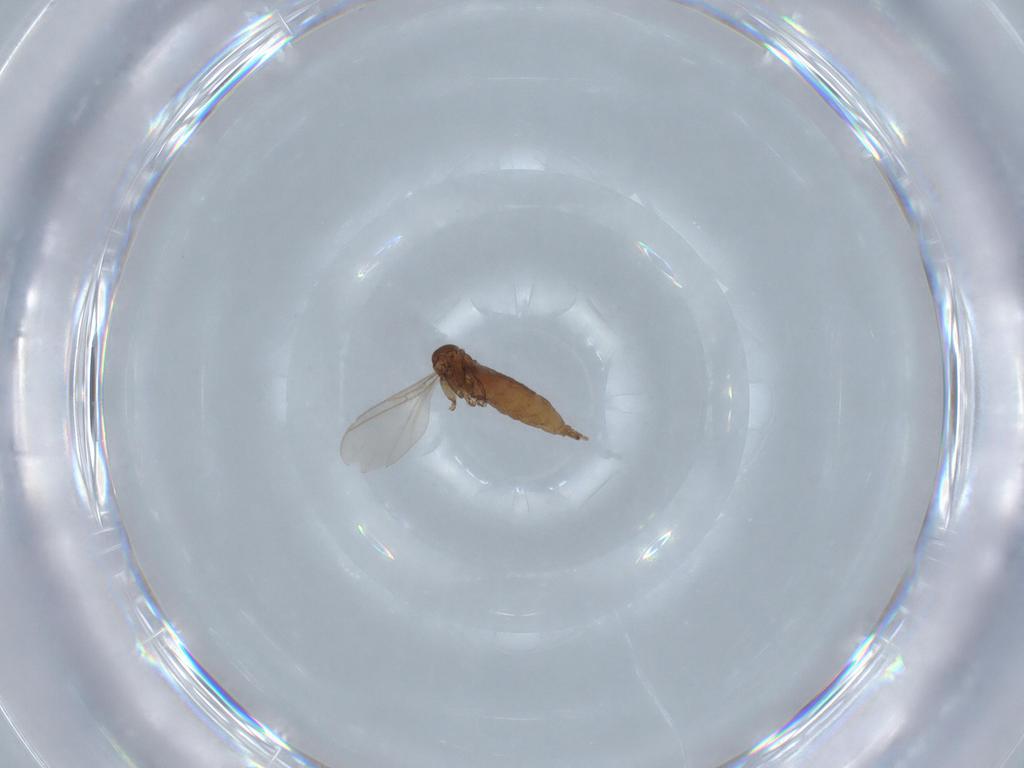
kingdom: Animalia
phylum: Arthropoda
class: Insecta
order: Diptera
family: Sciaridae
